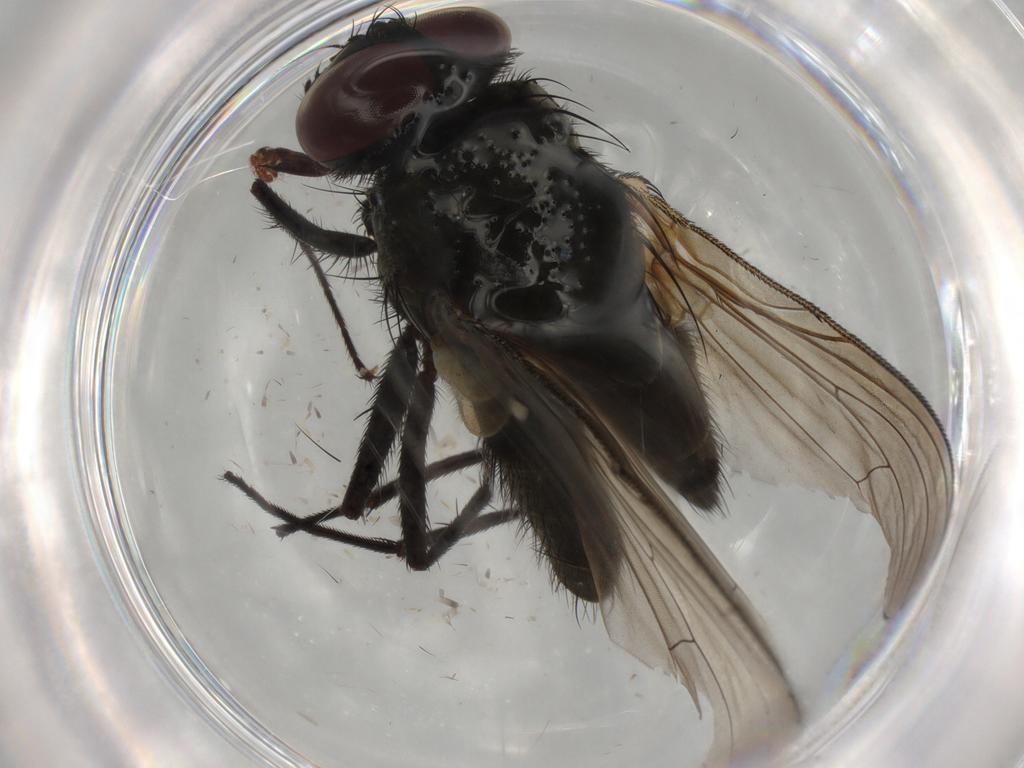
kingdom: Animalia
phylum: Arthropoda
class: Insecta
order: Diptera
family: Muscidae
